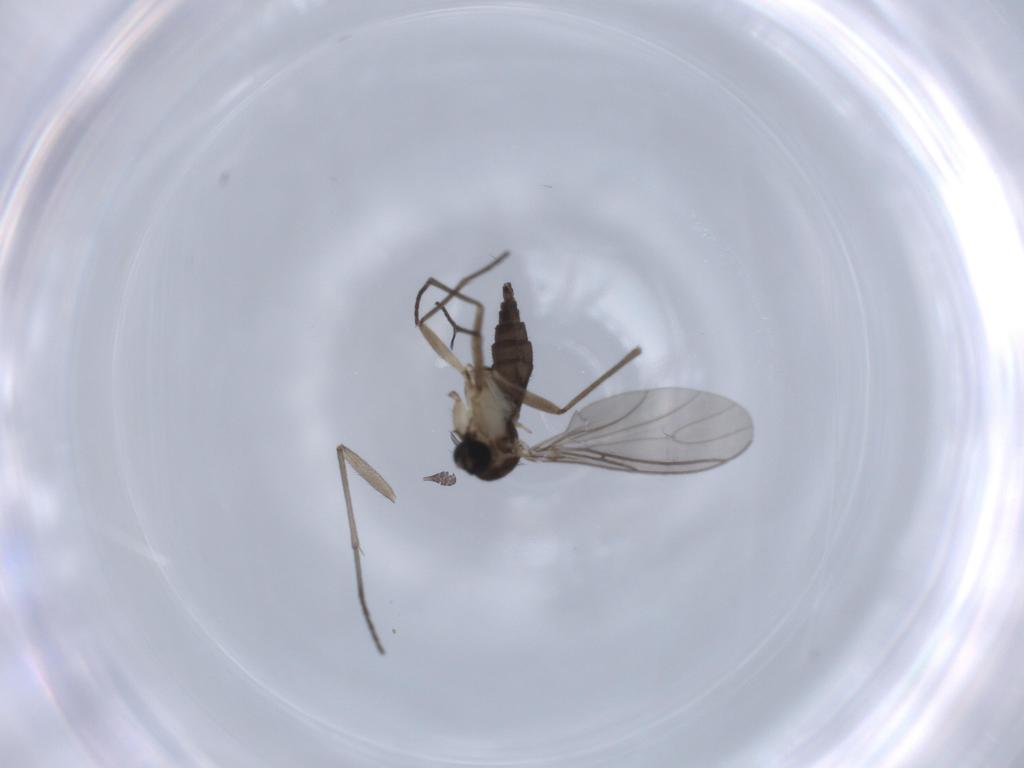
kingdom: Animalia
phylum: Arthropoda
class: Insecta
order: Diptera
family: Sciaridae
